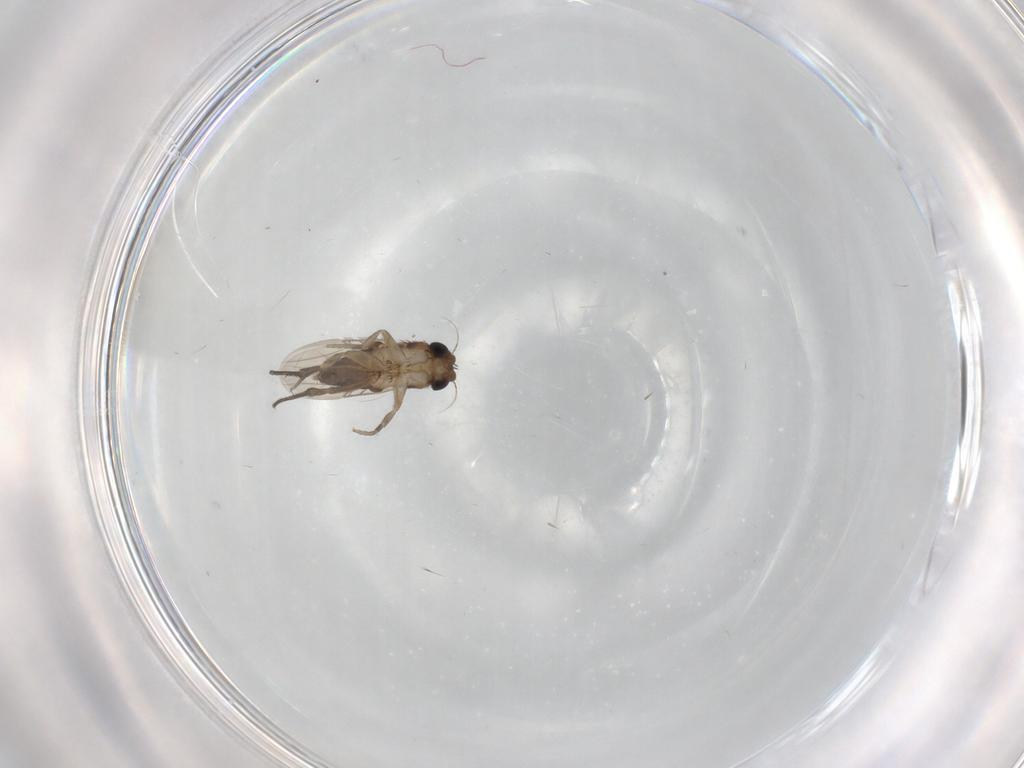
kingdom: Animalia
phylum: Arthropoda
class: Insecta
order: Diptera
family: Phoridae
